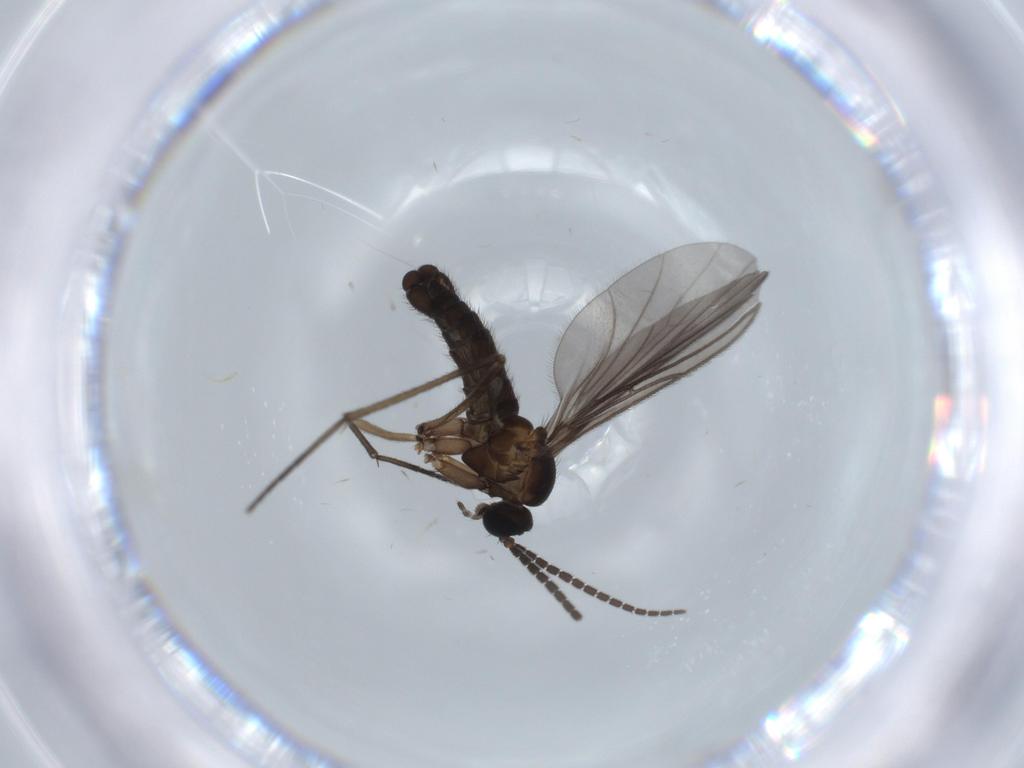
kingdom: Animalia
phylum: Arthropoda
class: Insecta
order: Diptera
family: Sciaridae
